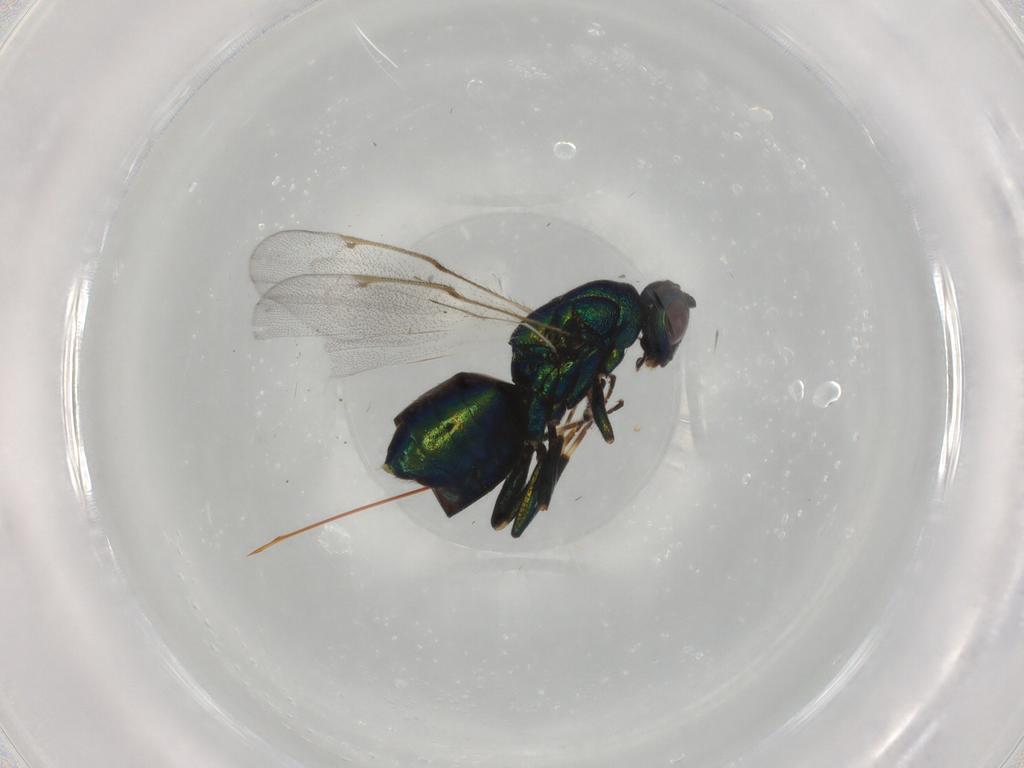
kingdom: Animalia
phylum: Arthropoda
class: Insecta
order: Hymenoptera
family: Torymidae
